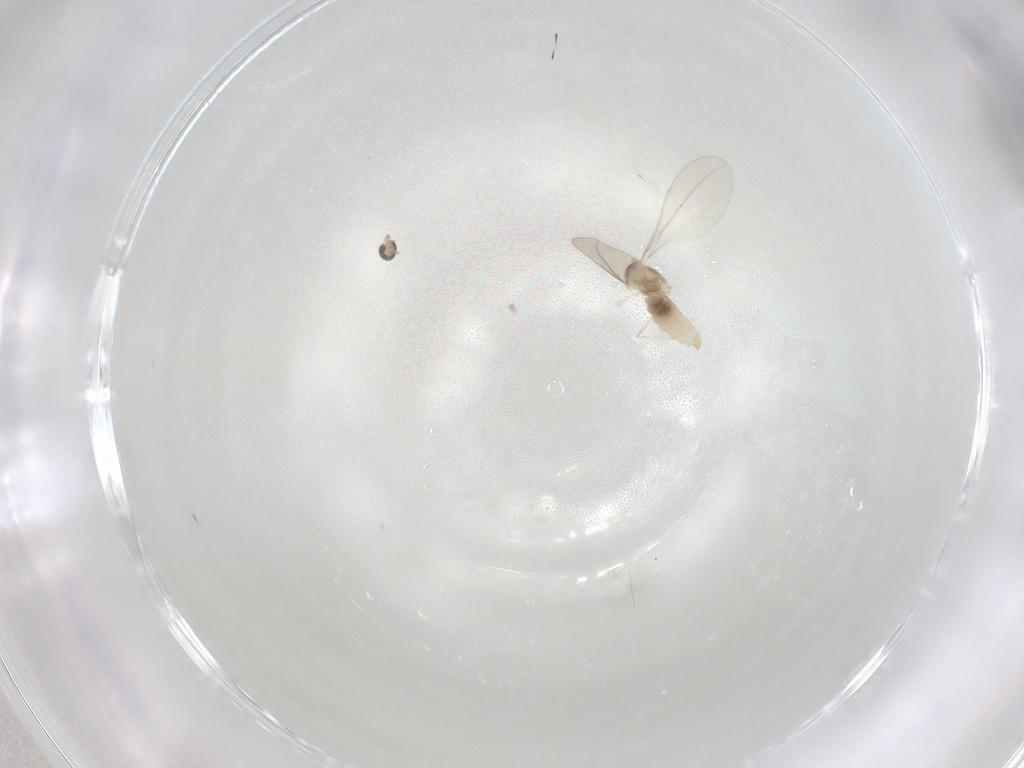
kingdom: Animalia
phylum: Arthropoda
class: Insecta
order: Diptera
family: Cecidomyiidae
